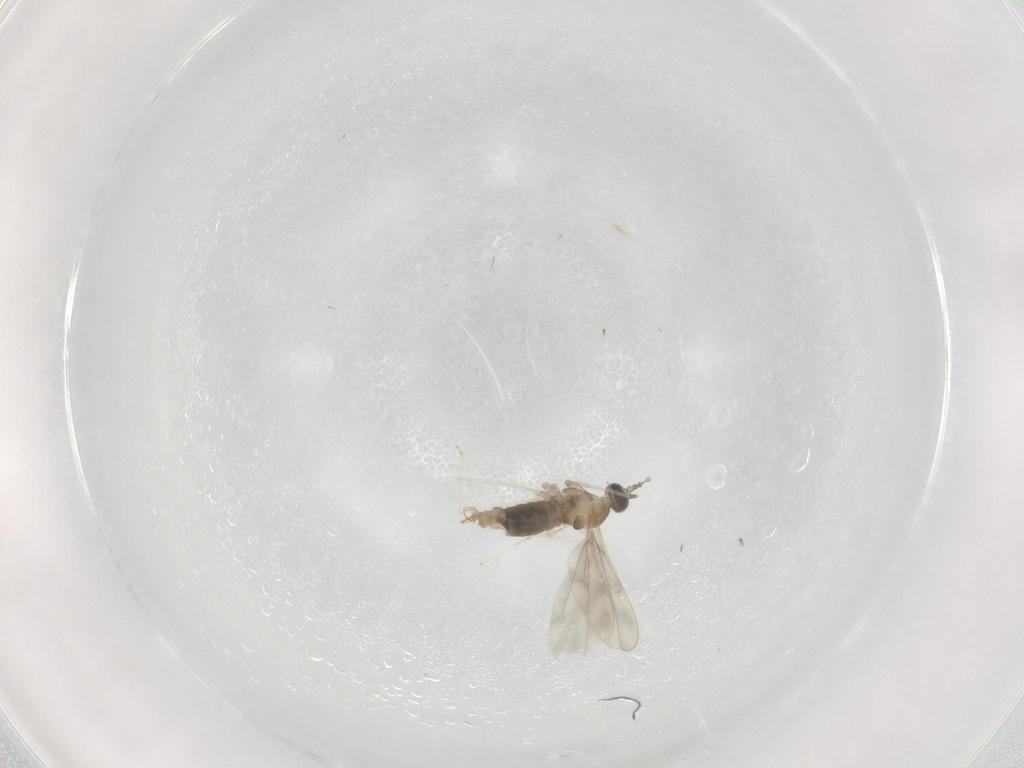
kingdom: Animalia
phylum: Arthropoda
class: Insecta
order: Diptera
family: Cecidomyiidae
